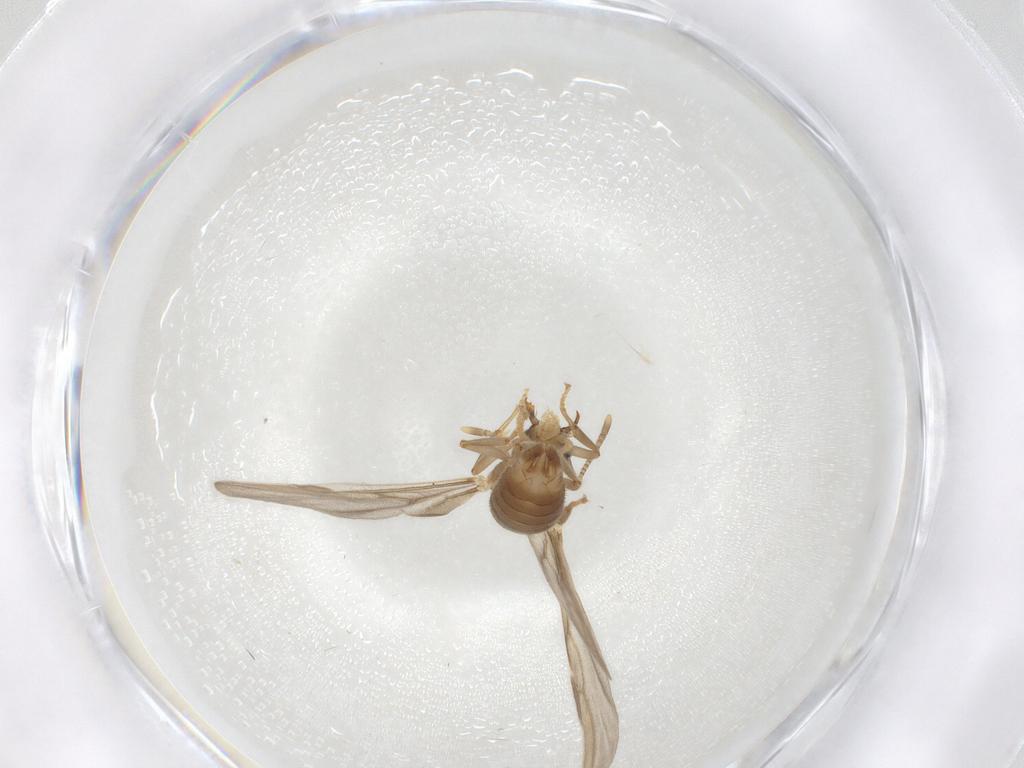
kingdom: Animalia
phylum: Arthropoda
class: Insecta
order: Hymenoptera
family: Formicidae
